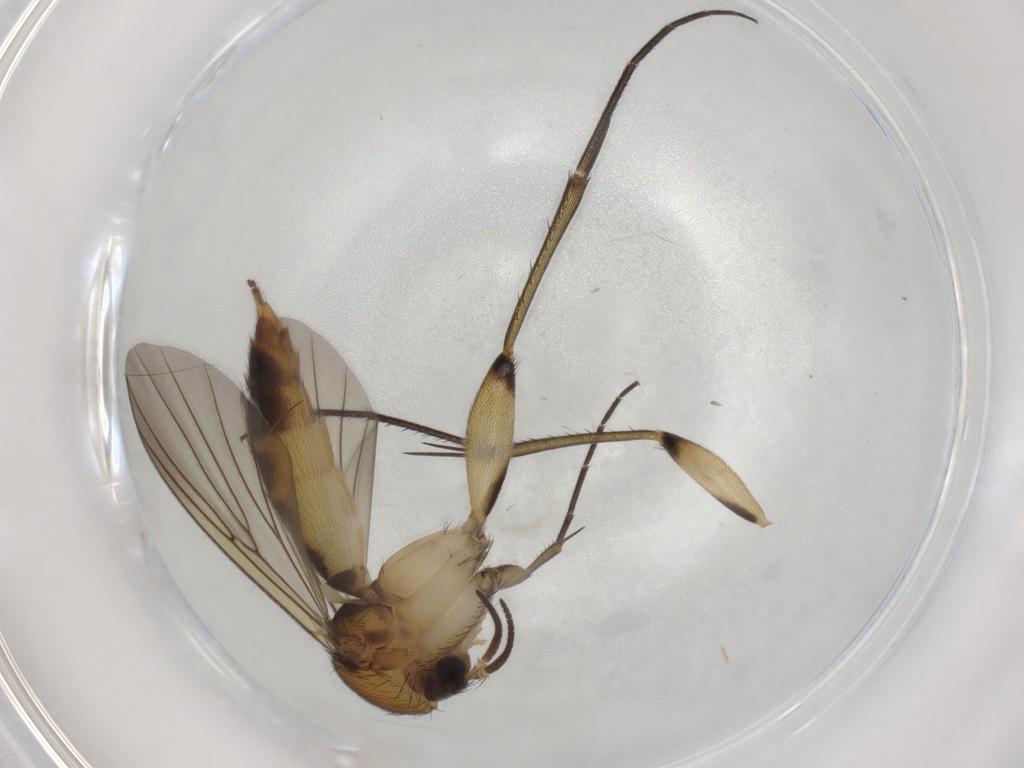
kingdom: Animalia
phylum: Arthropoda
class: Insecta
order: Diptera
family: Mycetophilidae
